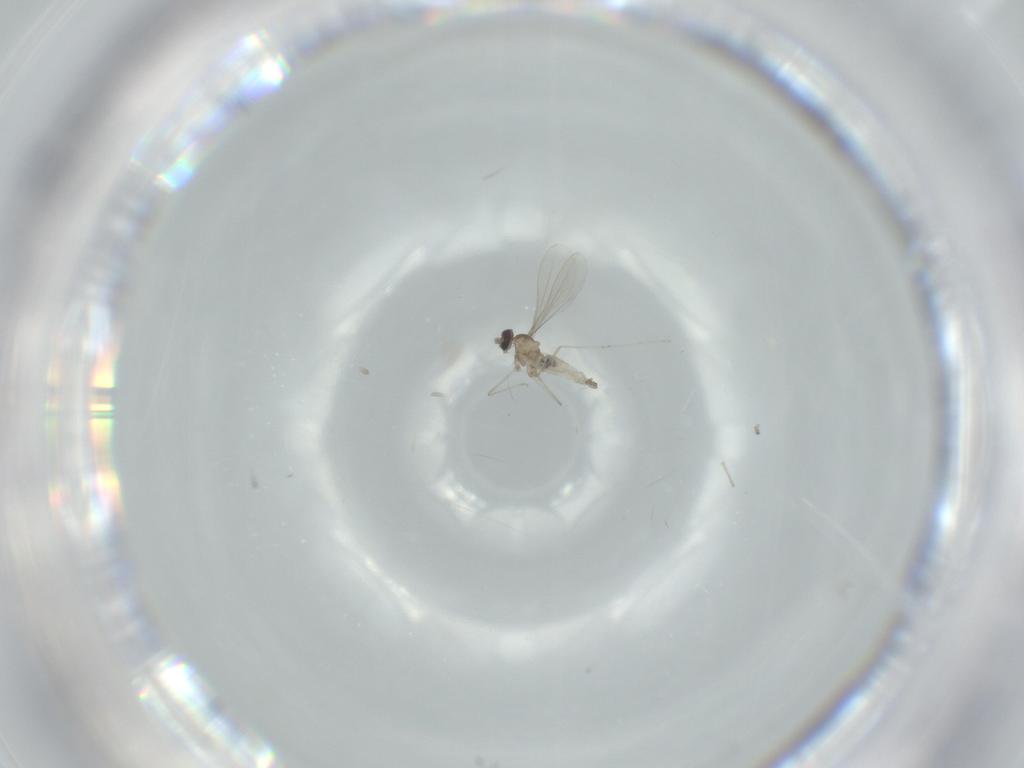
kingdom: Animalia
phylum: Arthropoda
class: Insecta
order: Diptera
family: Cecidomyiidae
